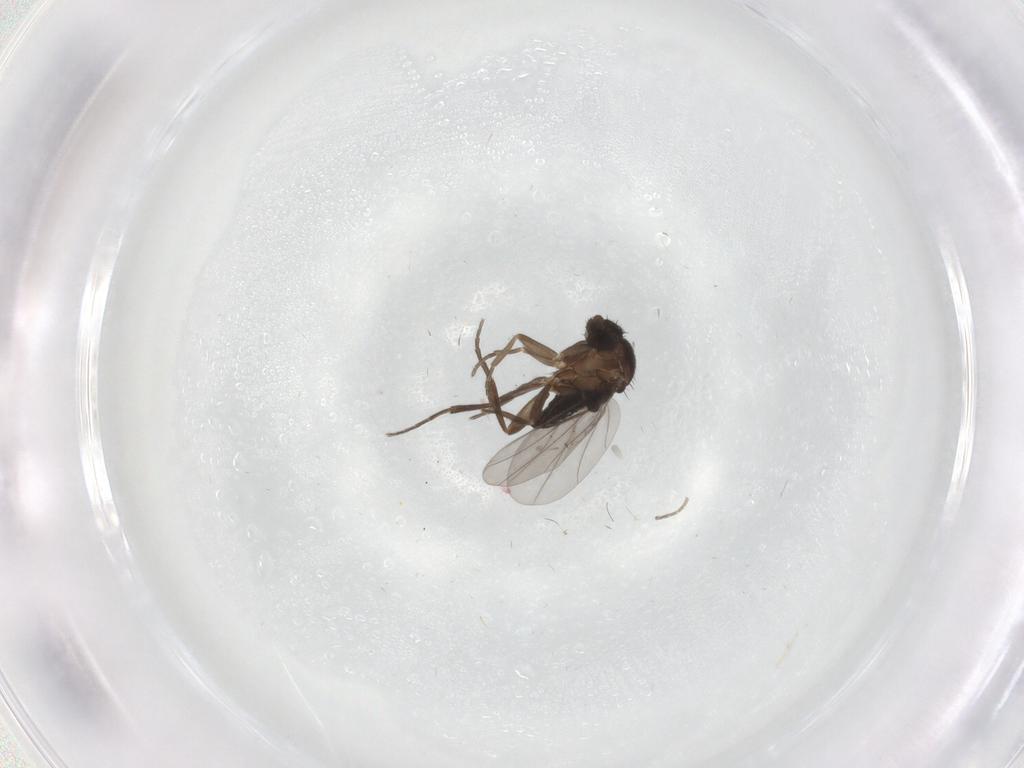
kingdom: Animalia
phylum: Arthropoda
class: Insecta
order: Diptera
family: Phoridae
